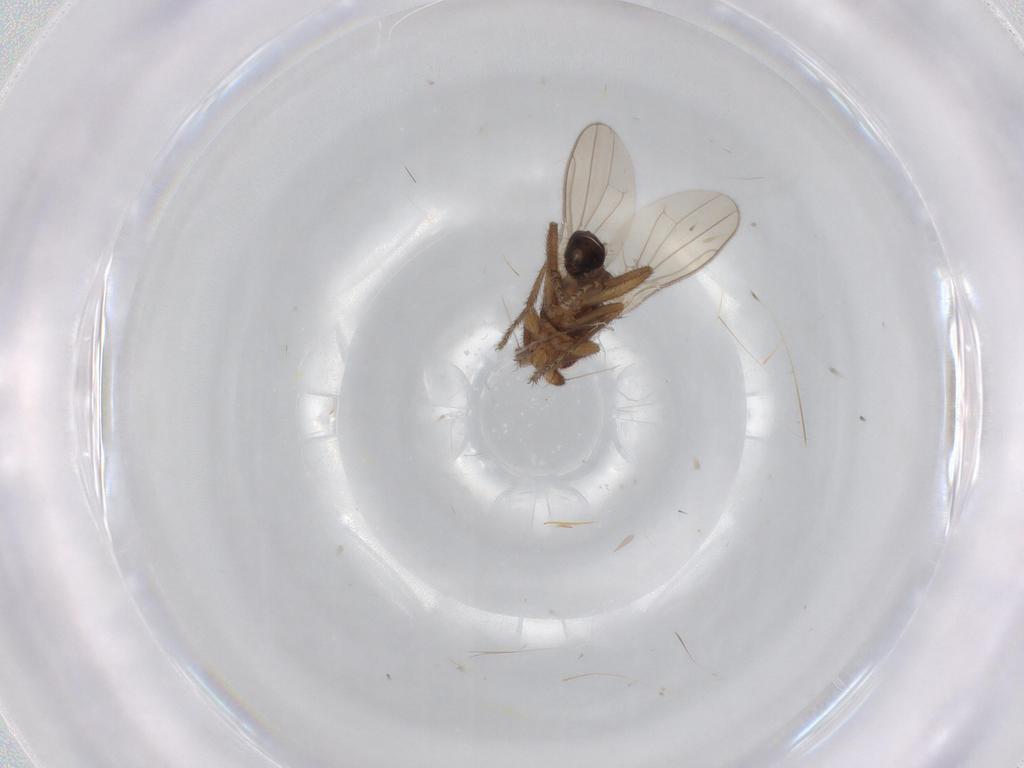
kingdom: Animalia
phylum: Arthropoda
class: Insecta
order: Diptera
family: Sphaeroceridae
